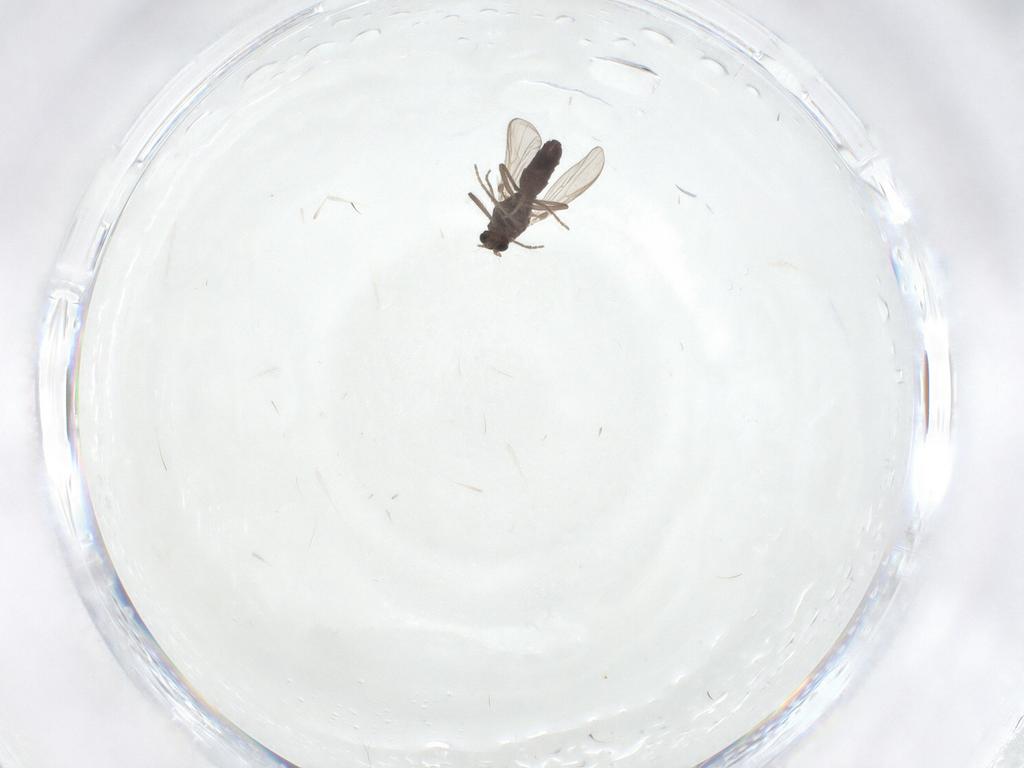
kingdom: Animalia
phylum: Arthropoda
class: Insecta
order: Diptera
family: Chironomidae
